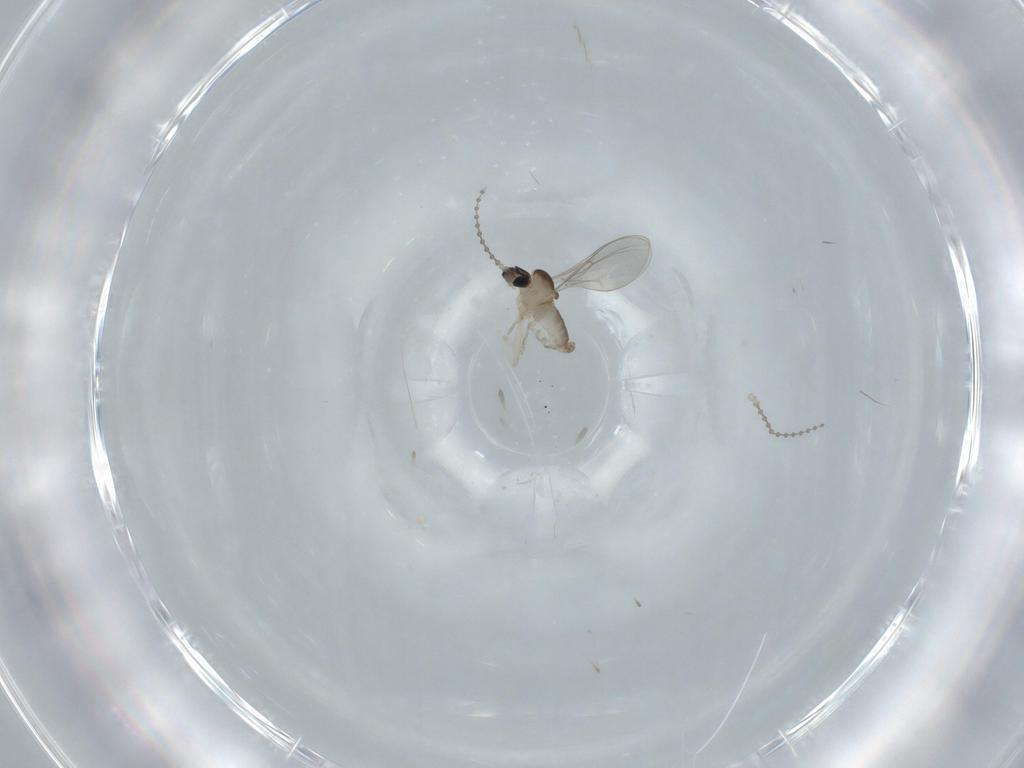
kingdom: Animalia
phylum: Arthropoda
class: Insecta
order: Diptera
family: Cecidomyiidae
